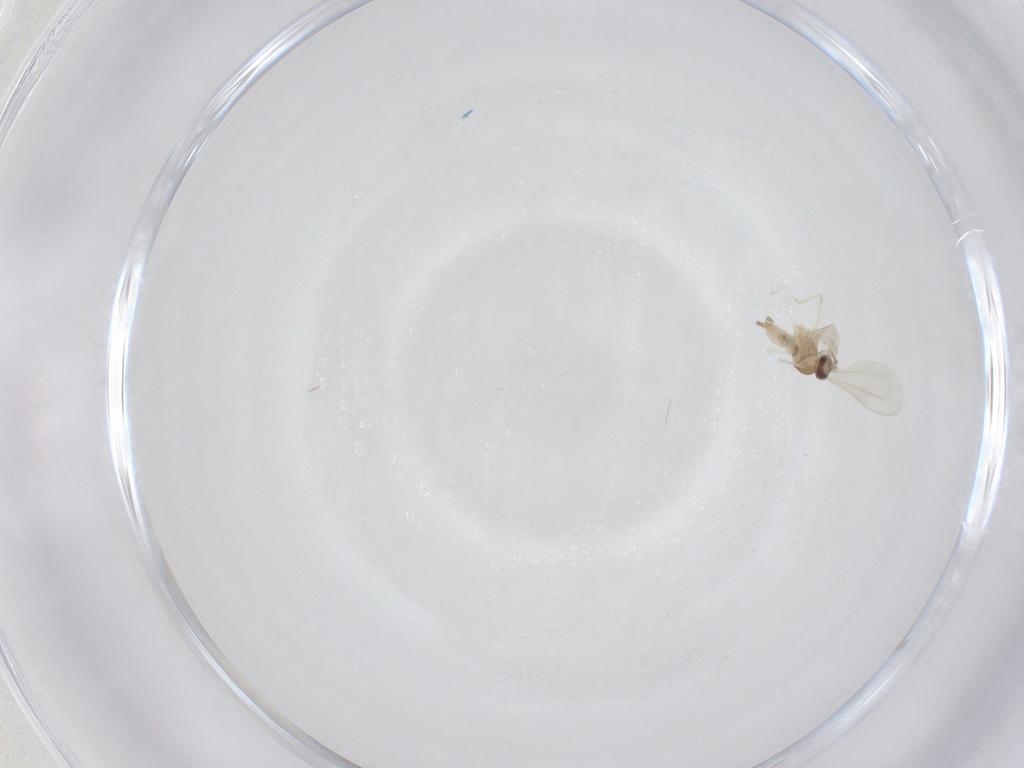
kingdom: Animalia
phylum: Arthropoda
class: Insecta
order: Diptera
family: Cecidomyiidae
